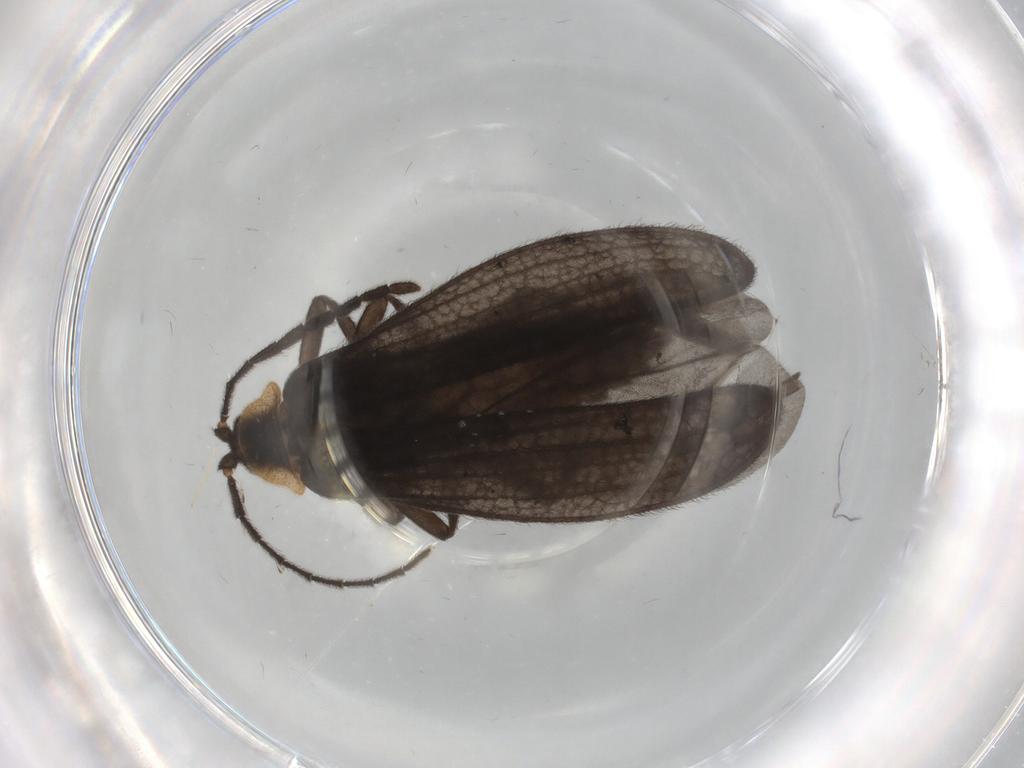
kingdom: Animalia
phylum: Arthropoda
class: Insecta
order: Coleoptera
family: Lycidae
